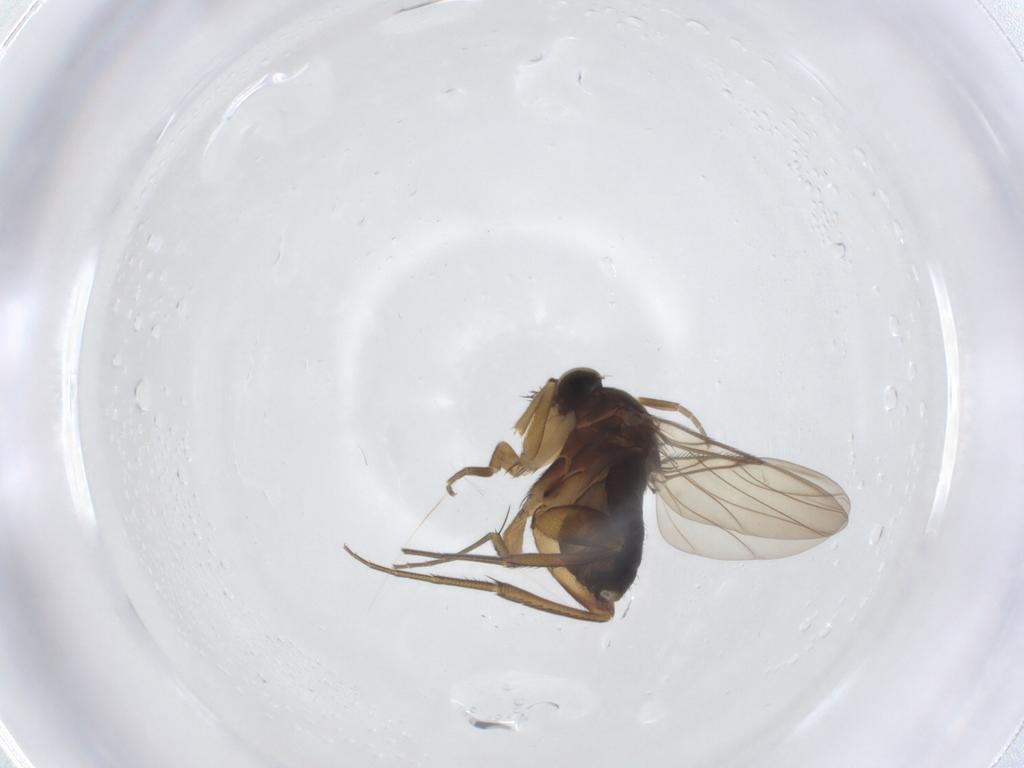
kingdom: Animalia
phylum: Arthropoda
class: Insecta
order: Diptera
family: Phoridae
